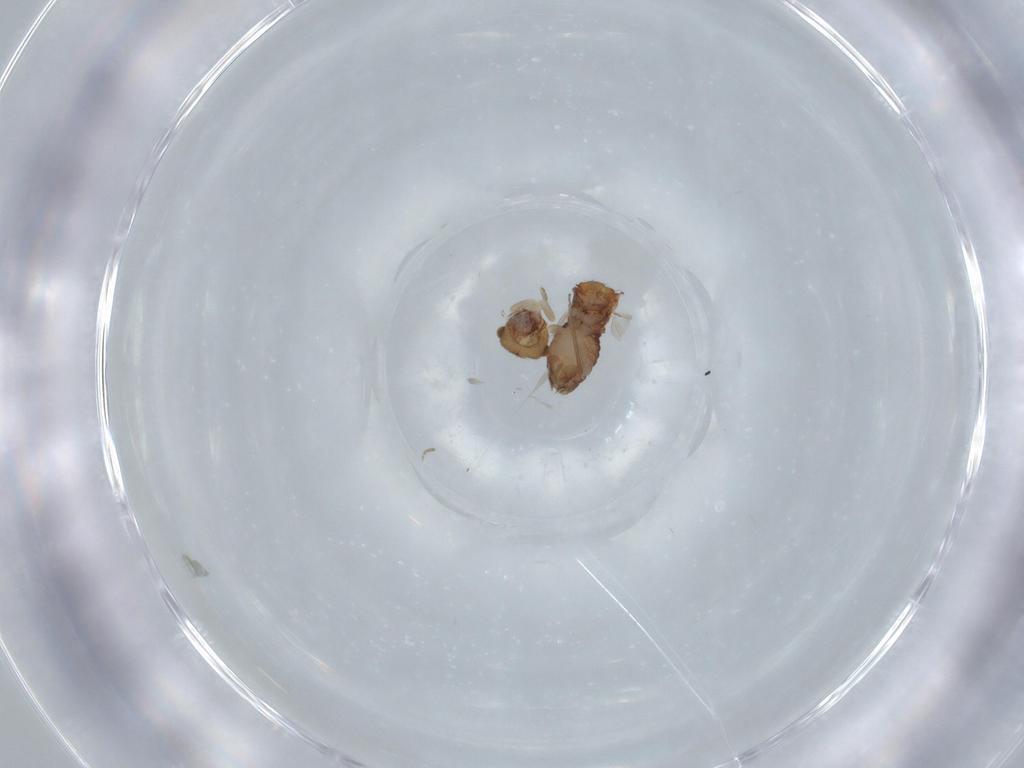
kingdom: Animalia
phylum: Arthropoda
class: Insecta
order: Psocodea
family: Ectopsocidae
